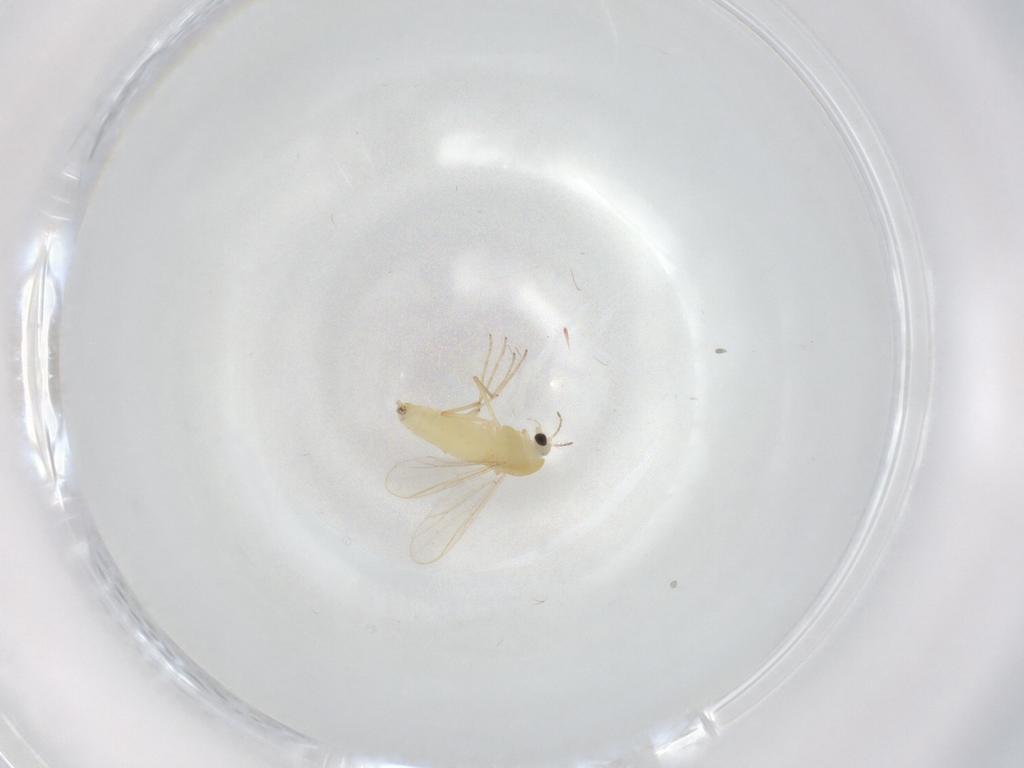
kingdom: Animalia
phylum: Arthropoda
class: Insecta
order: Diptera
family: Chironomidae
